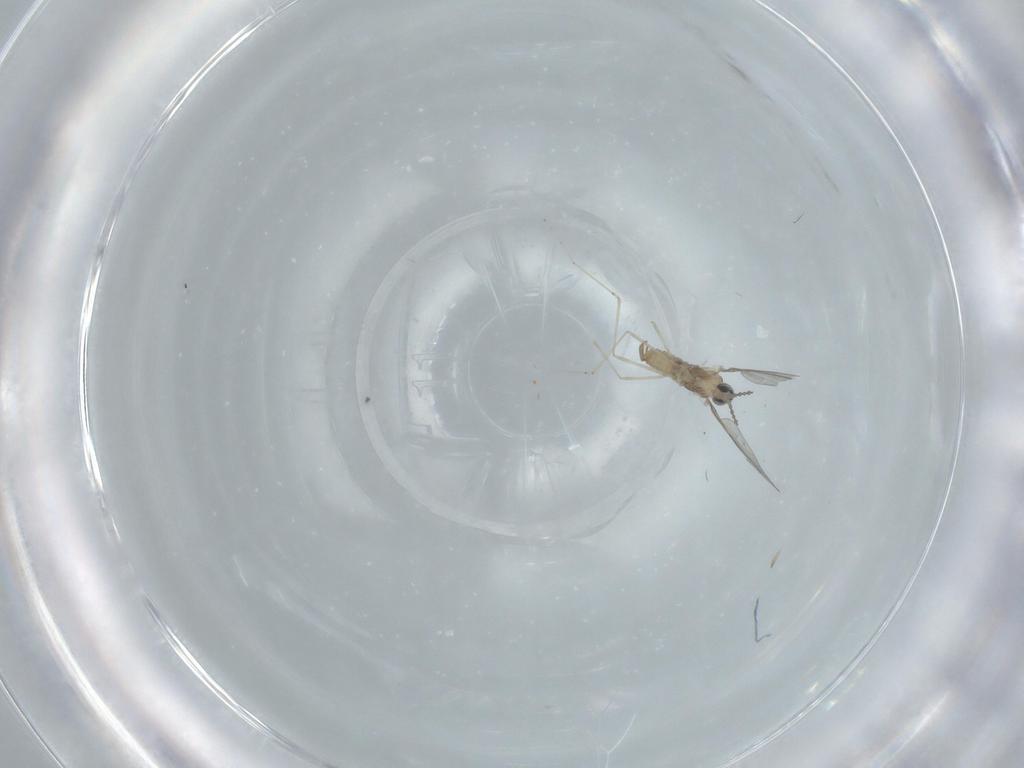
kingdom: Animalia
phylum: Arthropoda
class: Insecta
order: Diptera
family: Cecidomyiidae
